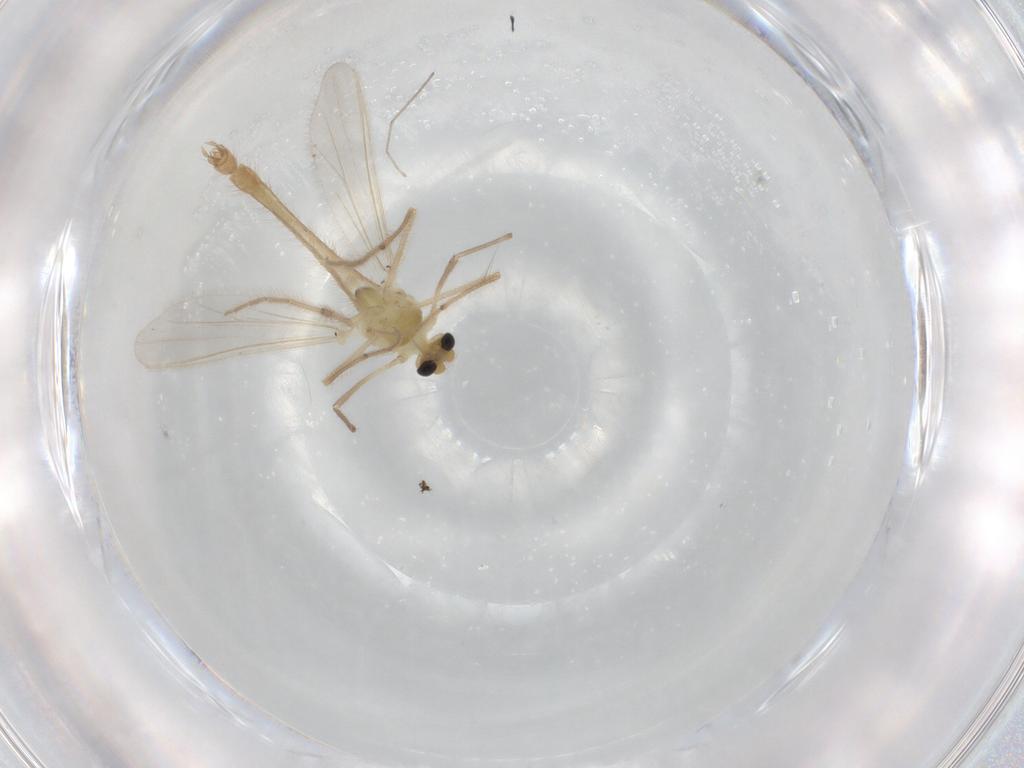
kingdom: Animalia
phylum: Arthropoda
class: Insecta
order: Diptera
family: Chironomidae
